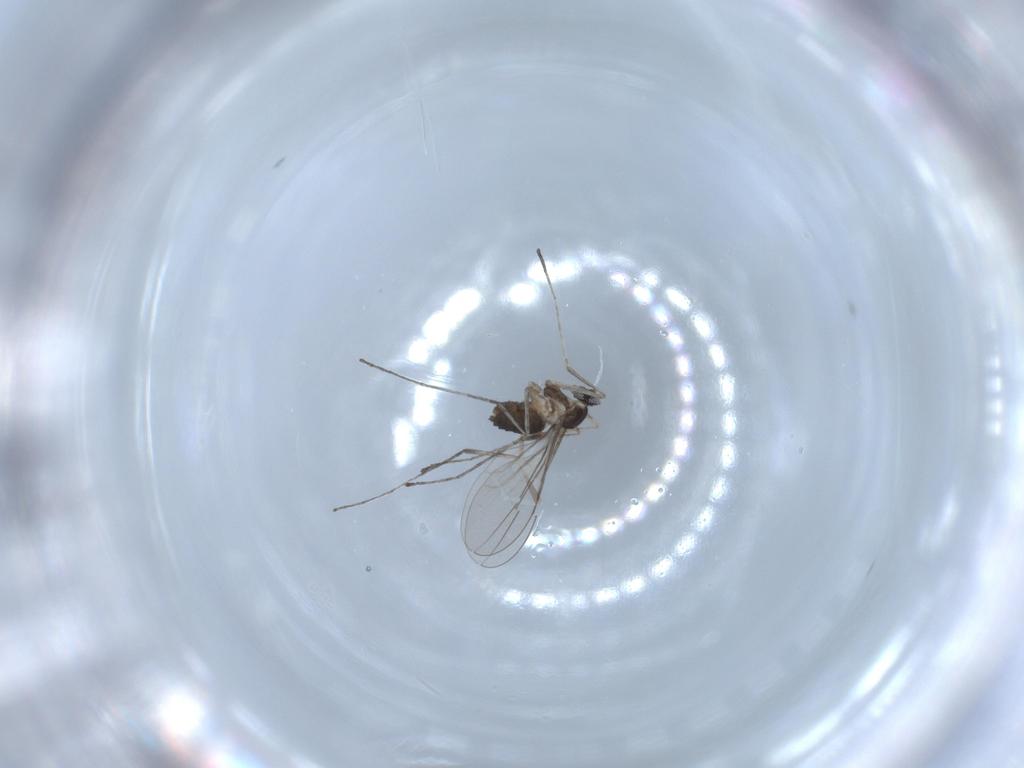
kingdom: Animalia
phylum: Arthropoda
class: Insecta
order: Diptera
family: Cecidomyiidae
